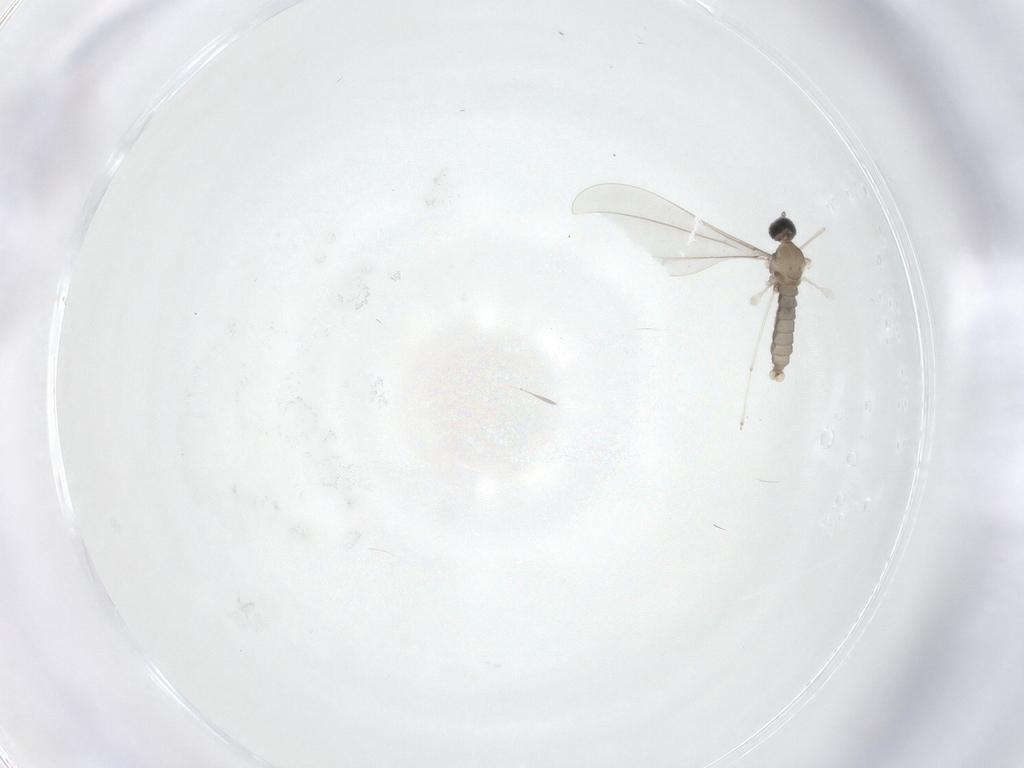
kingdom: Animalia
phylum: Arthropoda
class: Insecta
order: Diptera
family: Cecidomyiidae
